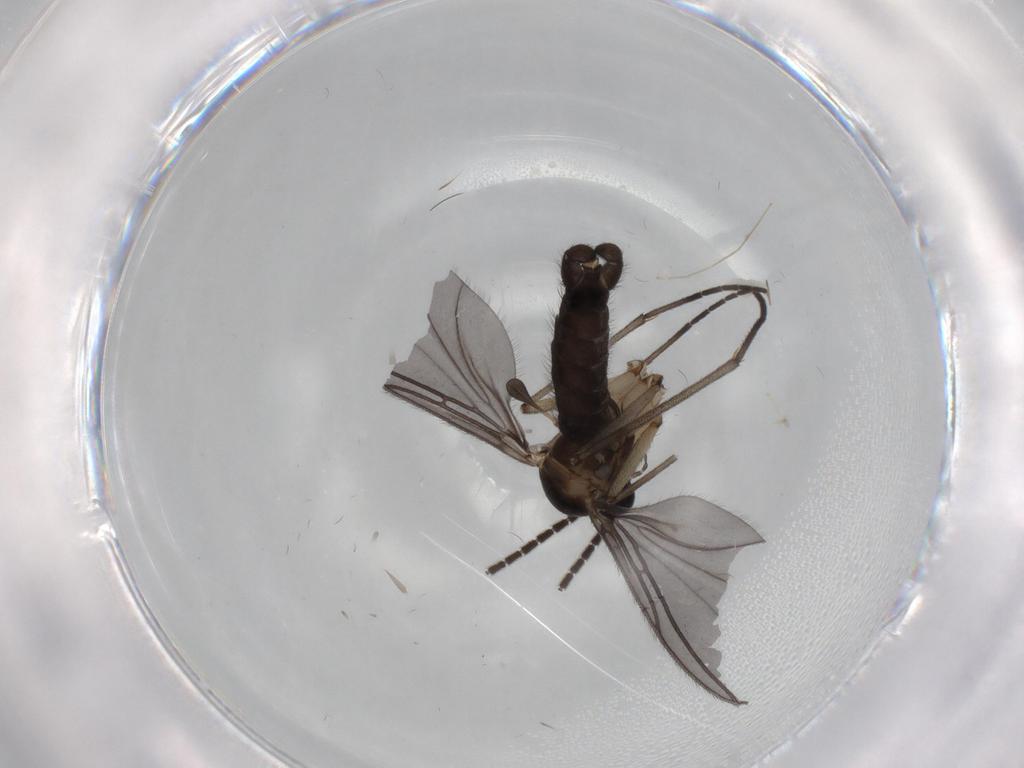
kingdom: Animalia
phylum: Arthropoda
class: Insecta
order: Diptera
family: Sciaridae
